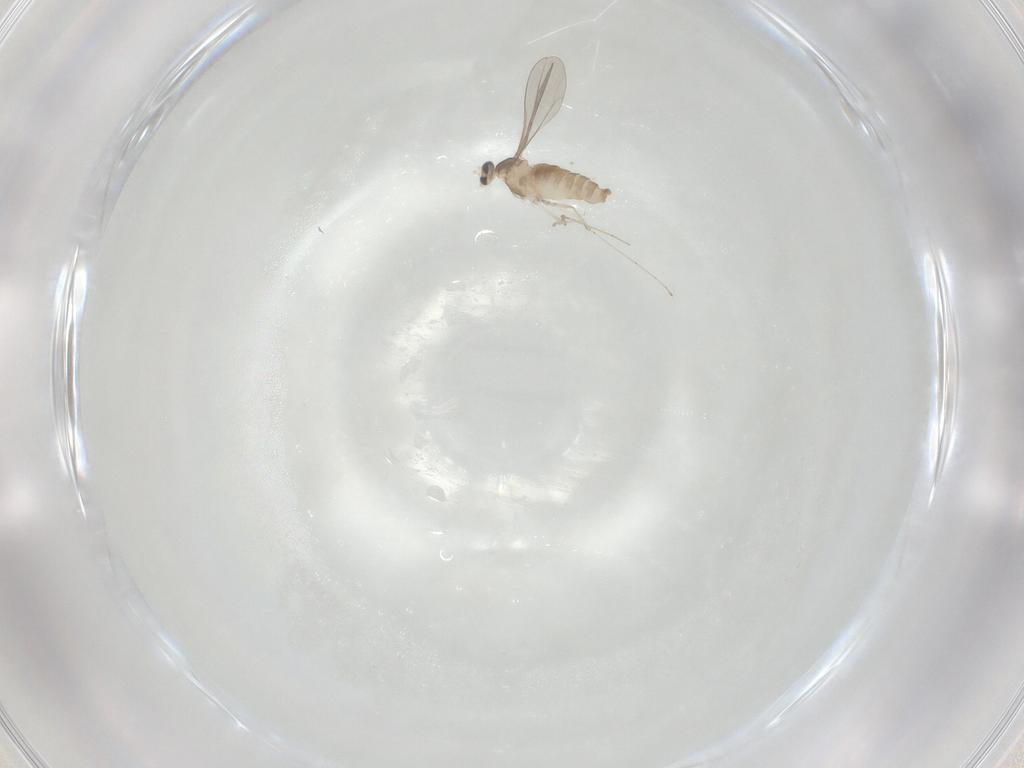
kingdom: Animalia
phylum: Arthropoda
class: Insecta
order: Diptera
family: Cecidomyiidae
